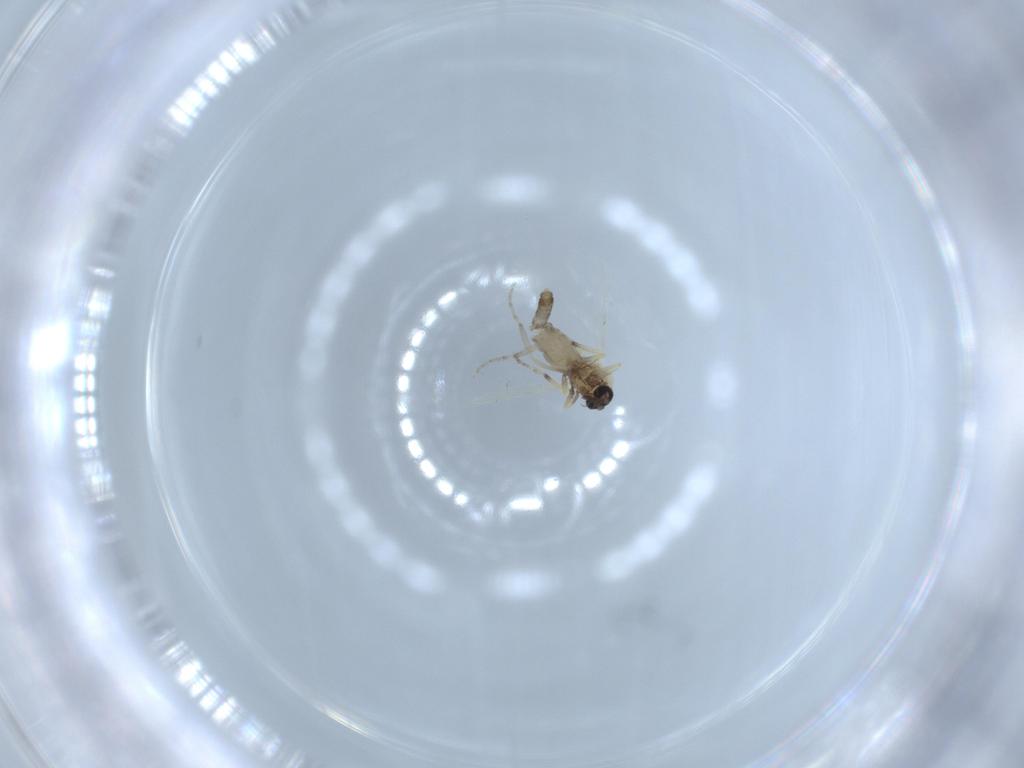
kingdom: Animalia
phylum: Arthropoda
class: Insecta
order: Diptera
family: Ceratopogonidae
